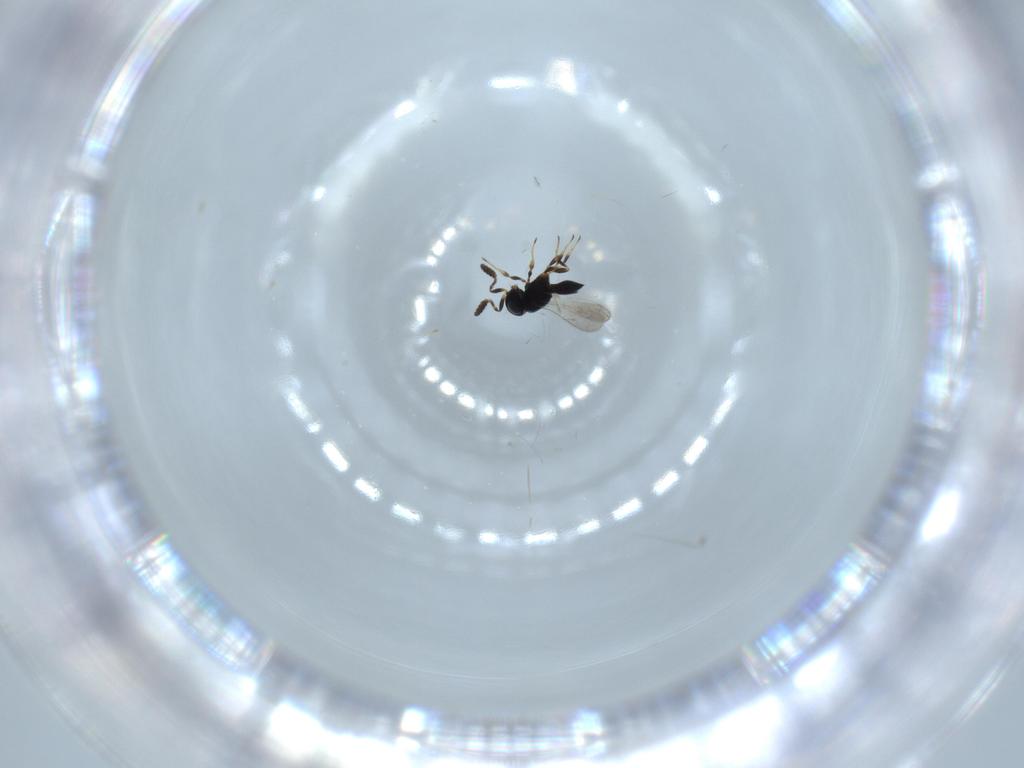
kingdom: Animalia
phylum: Arthropoda
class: Insecta
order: Hymenoptera
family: Scelionidae
